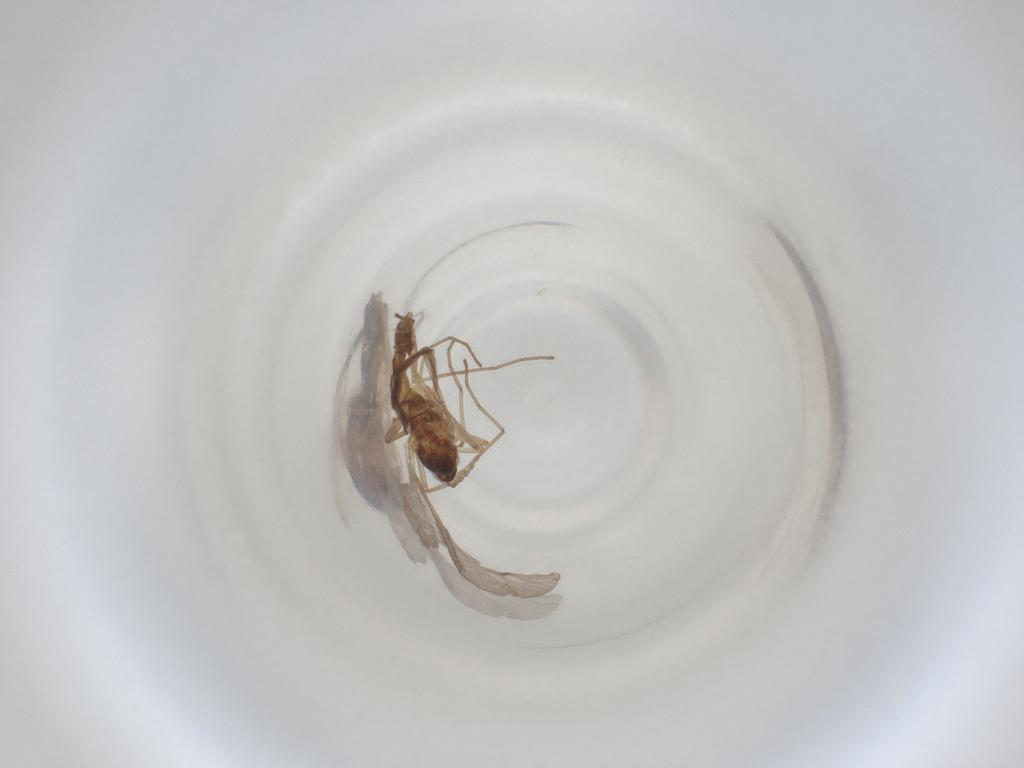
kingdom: Animalia
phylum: Arthropoda
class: Insecta
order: Diptera
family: Cecidomyiidae
